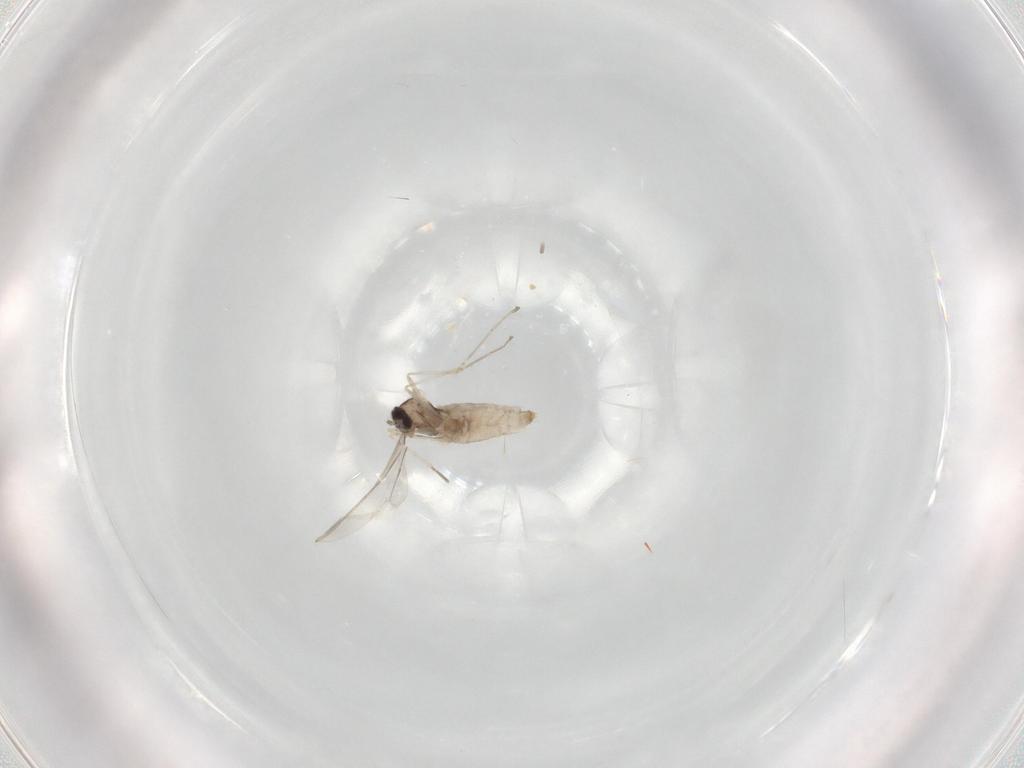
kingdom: Animalia
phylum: Arthropoda
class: Insecta
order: Diptera
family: Cecidomyiidae
